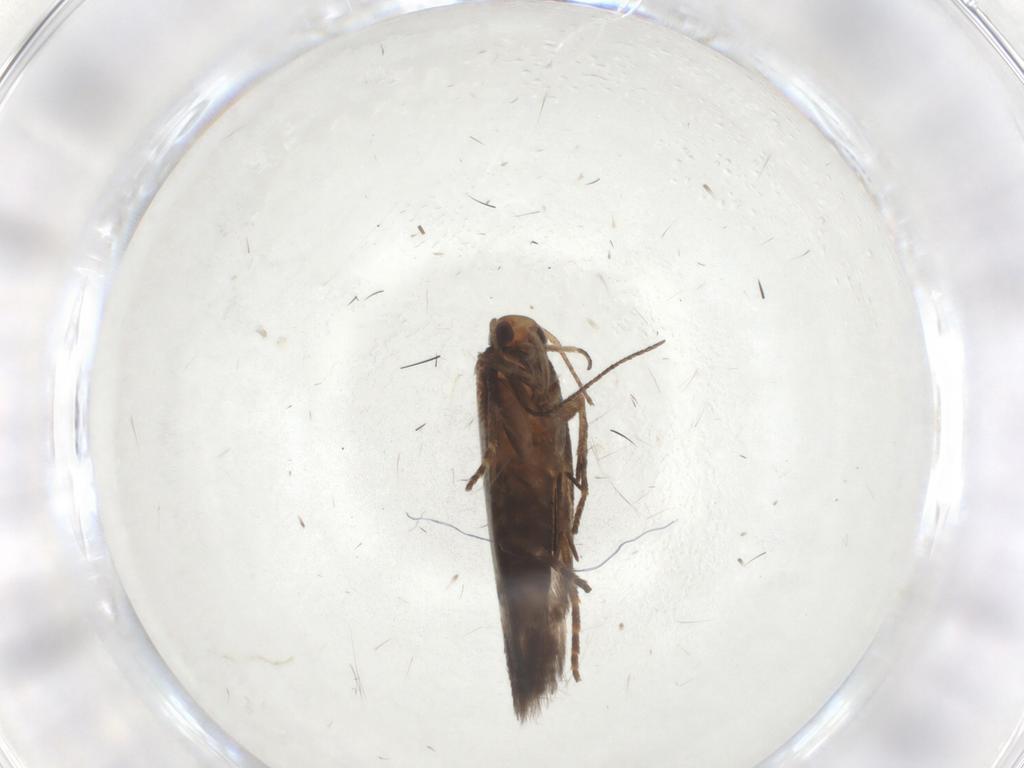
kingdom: Animalia
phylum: Arthropoda
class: Insecta
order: Lepidoptera
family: Gelechiidae
